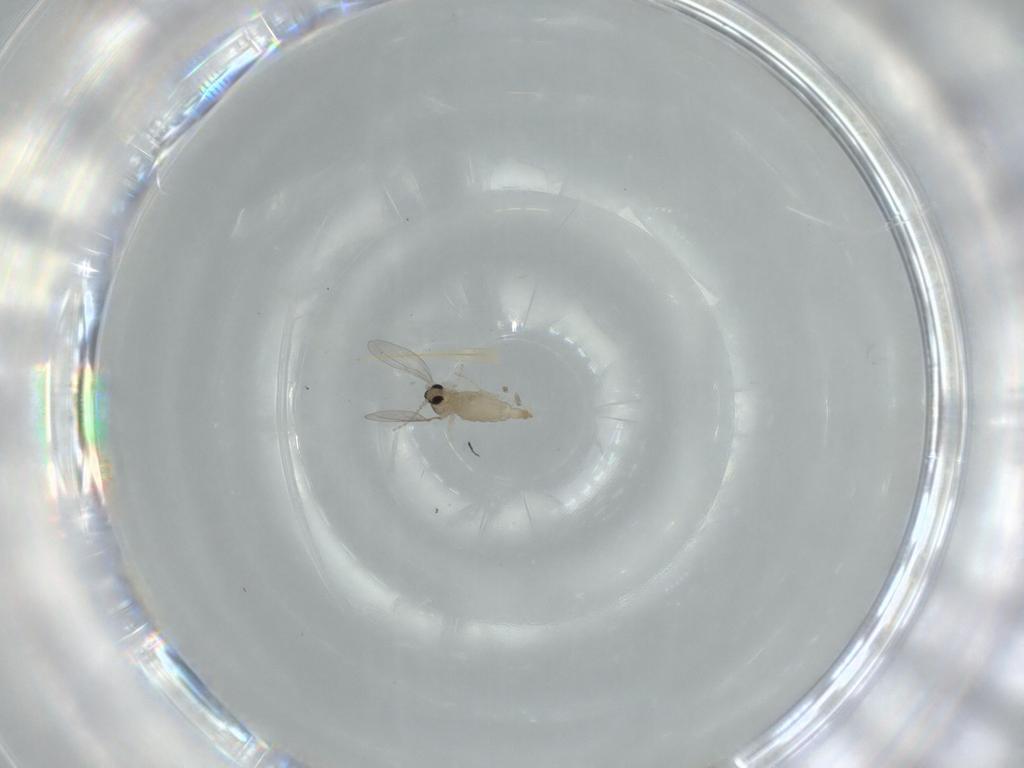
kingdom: Animalia
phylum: Arthropoda
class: Insecta
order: Diptera
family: Cecidomyiidae
